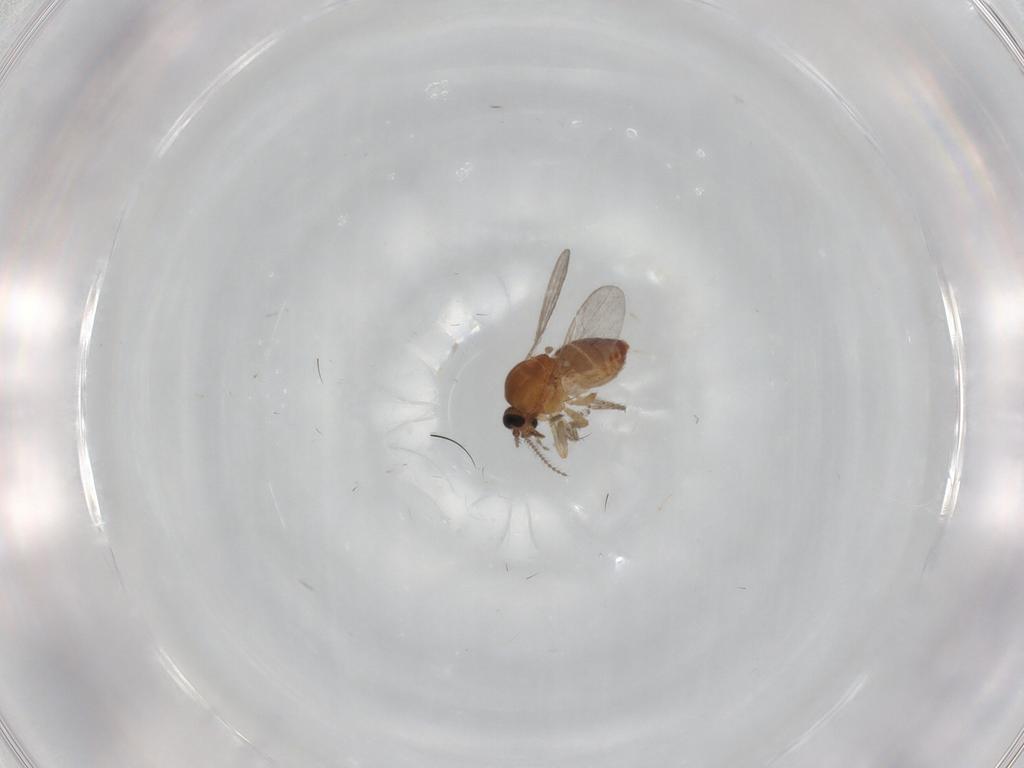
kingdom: Animalia
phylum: Arthropoda
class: Insecta
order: Diptera
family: Ceratopogonidae
